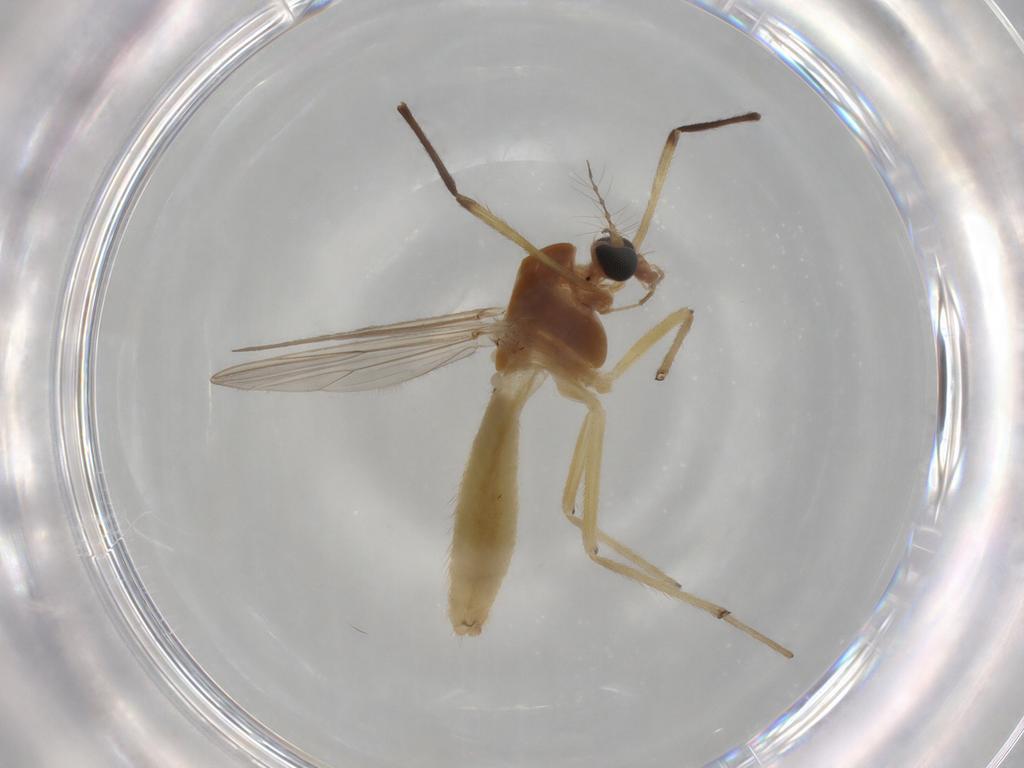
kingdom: Animalia
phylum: Arthropoda
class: Insecta
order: Diptera
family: Chironomidae
